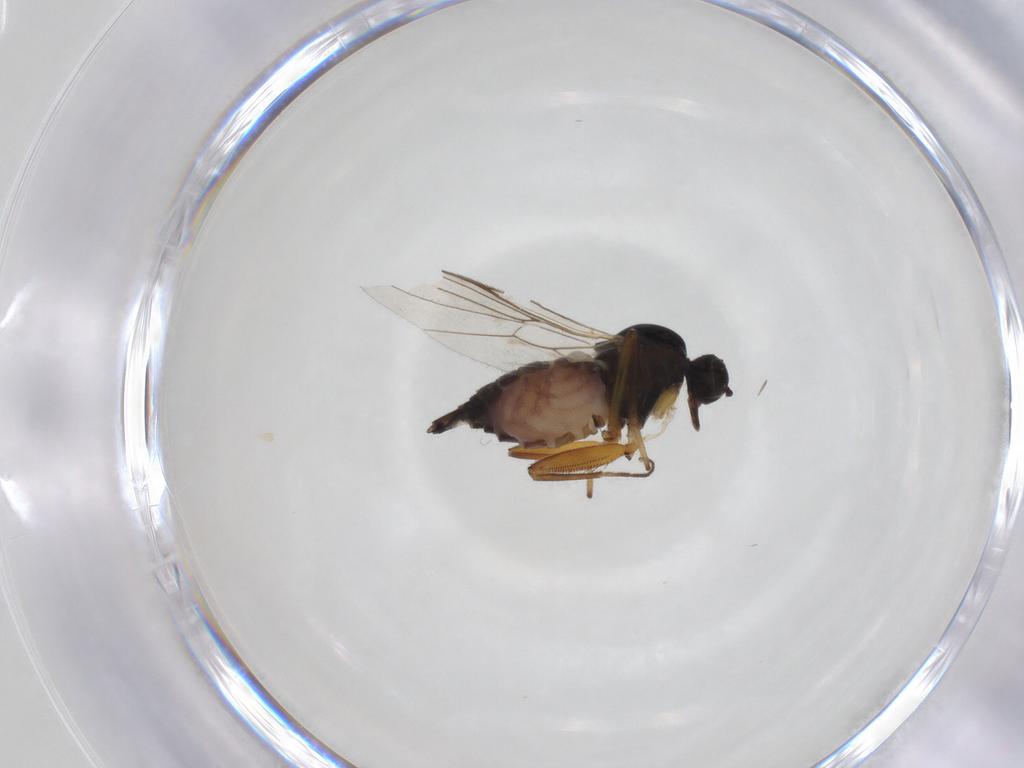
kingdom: Animalia
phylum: Arthropoda
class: Insecta
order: Diptera
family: Hybotidae
